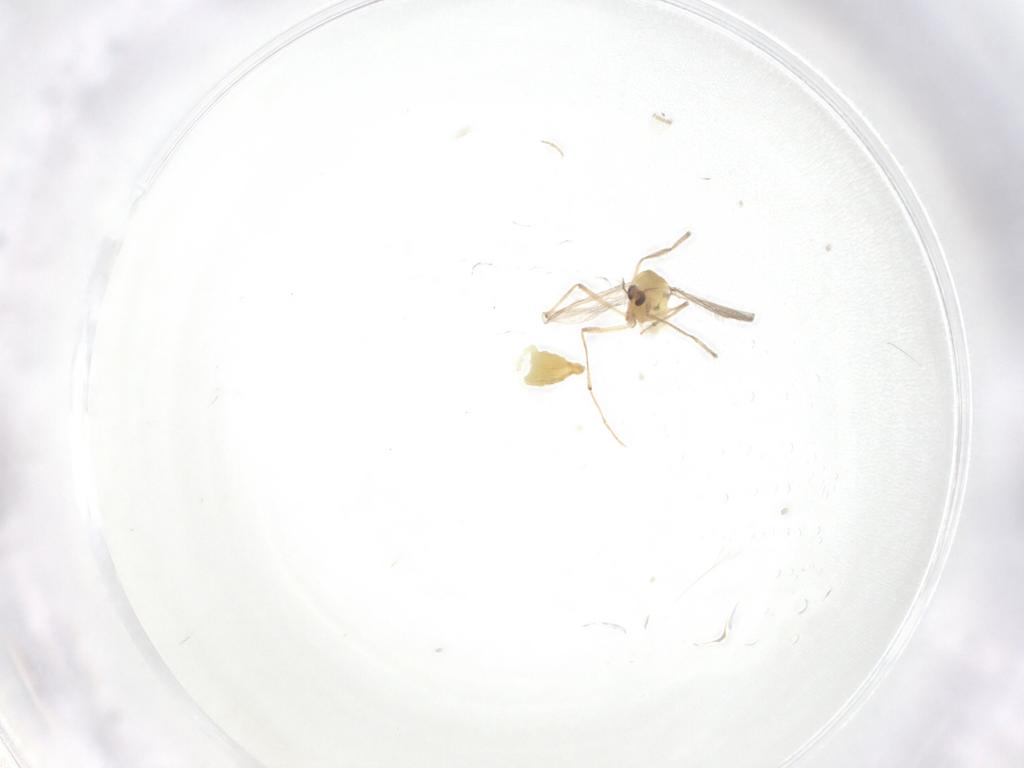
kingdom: Animalia
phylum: Arthropoda
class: Insecta
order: Diptera
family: Chironomidae
